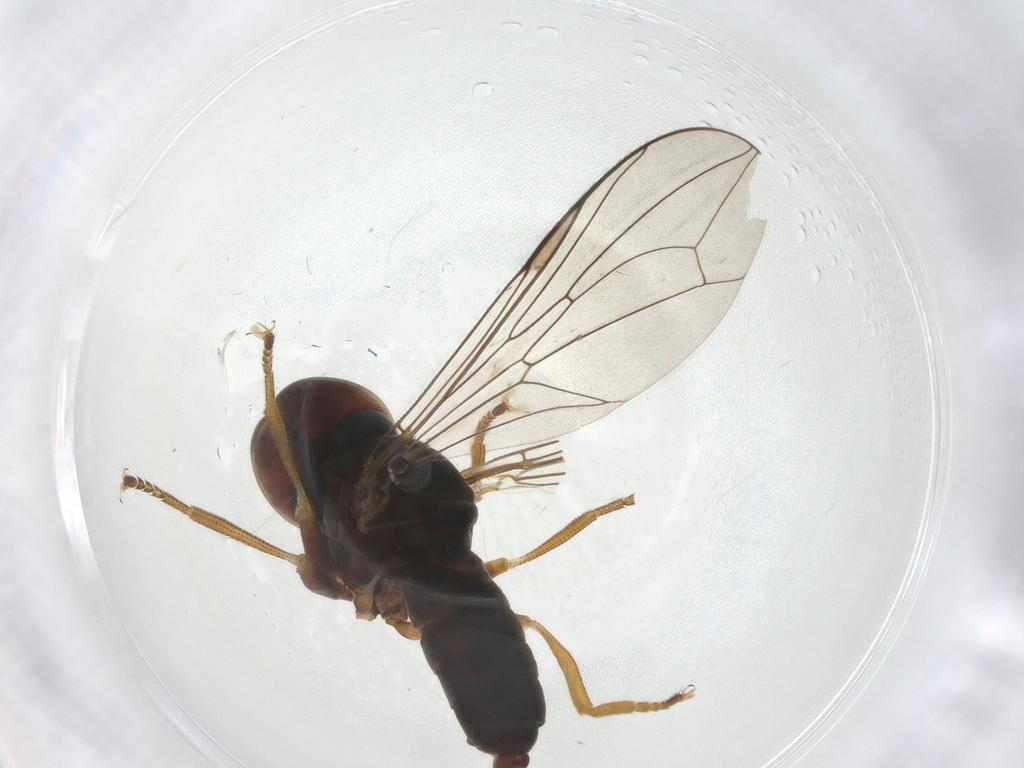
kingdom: Animalia
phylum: Arthropoda
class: Insecta
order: Diptera
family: Pipunculidae
